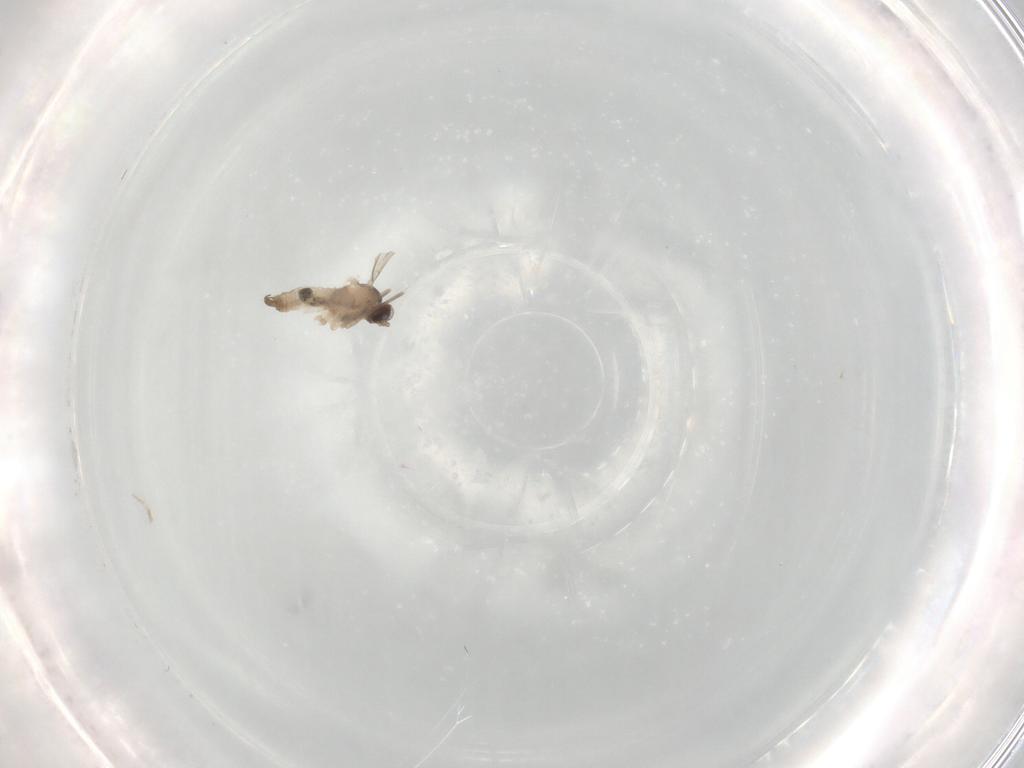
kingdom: Animalia
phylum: Arthropoda
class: Insecta
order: Diptera
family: Cecidomyiidae
